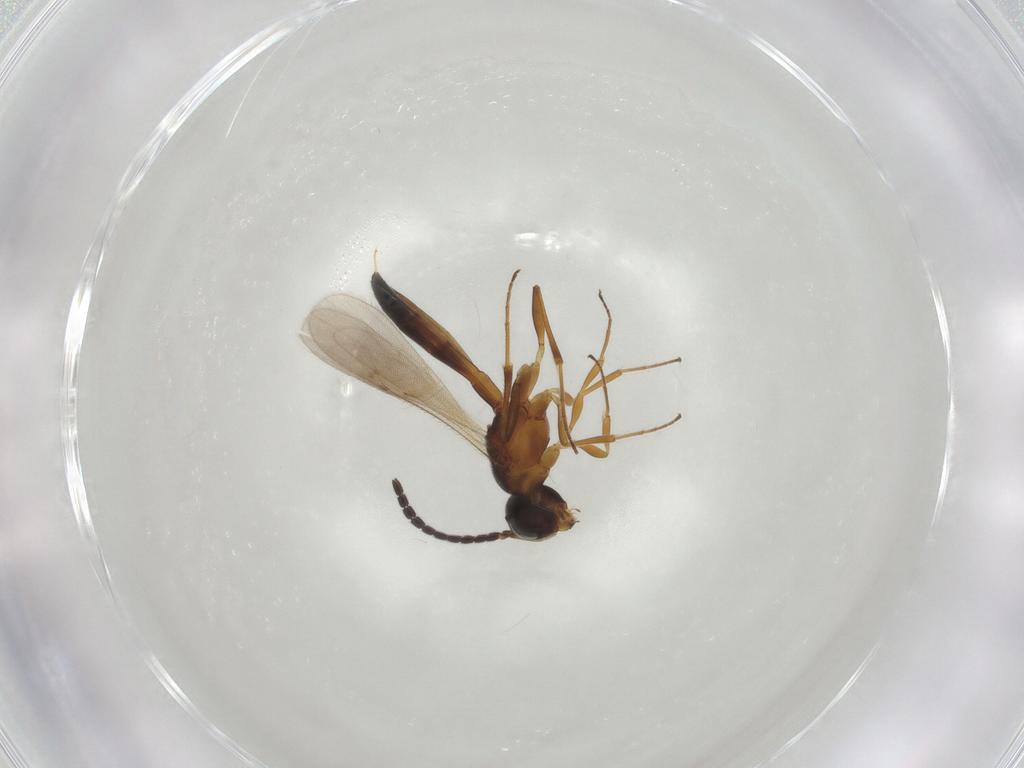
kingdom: Animalia
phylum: Arthropoda
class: Insecta
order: Hymenoptera
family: Scelionidae
